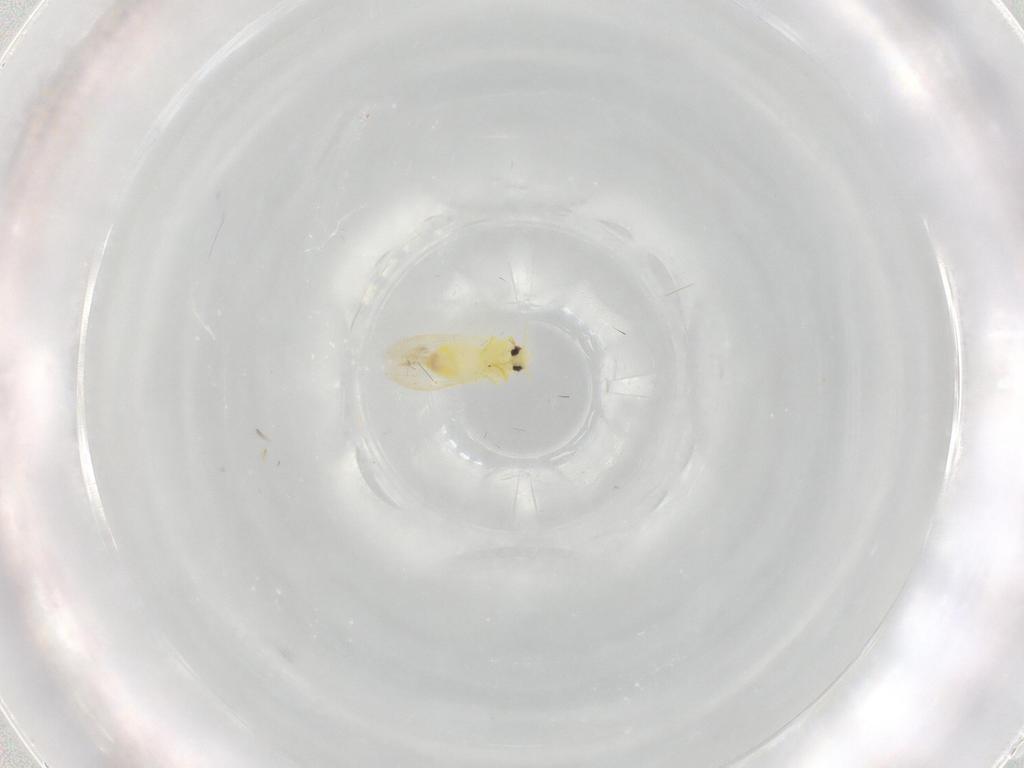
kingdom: Animalia
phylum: Arthropoda
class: Insecta
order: Hemiptera
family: Aleyrodidae
